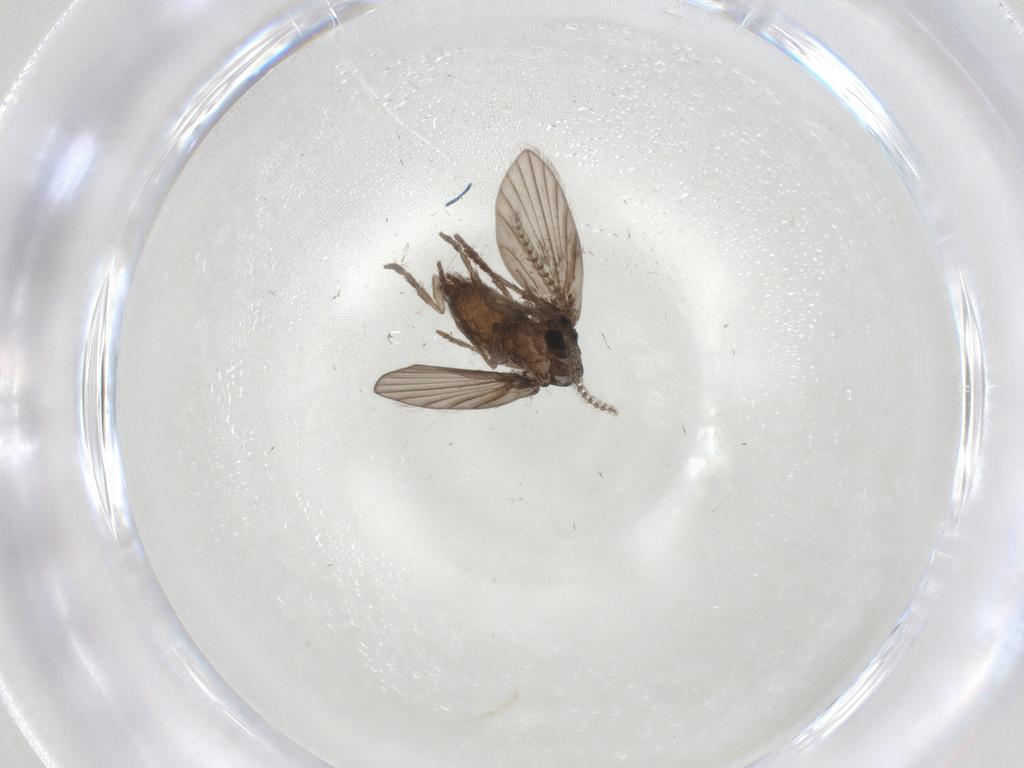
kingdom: Animalia
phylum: Arthropoda
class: Insecta
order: Diptera
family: Psychodidae
